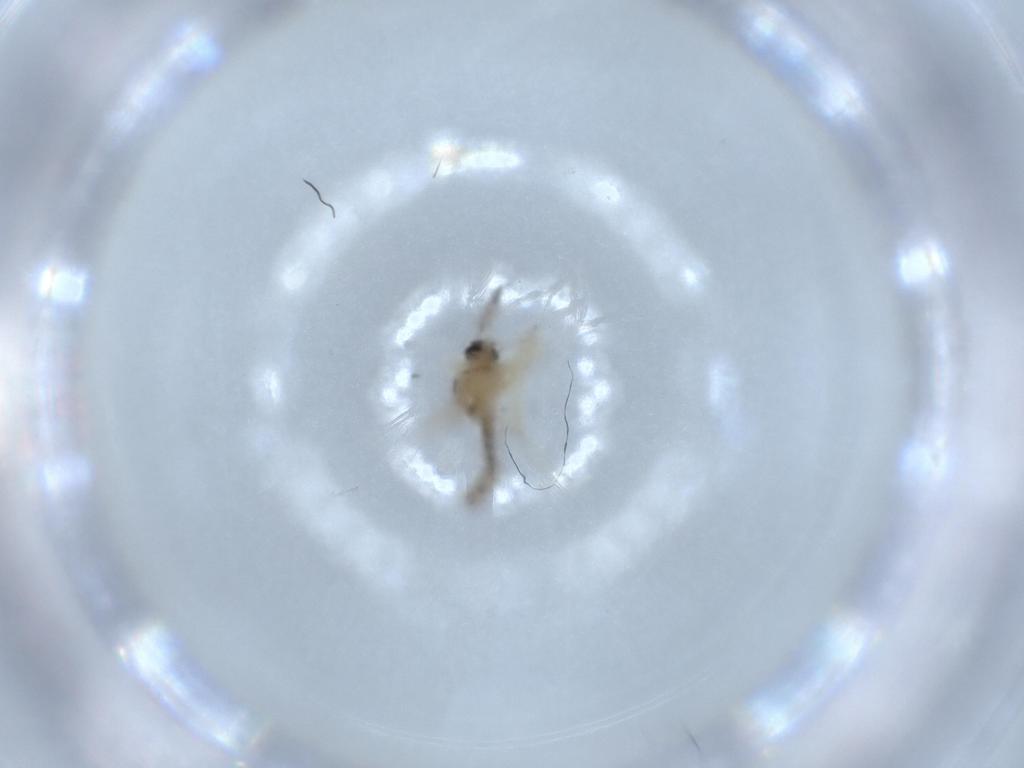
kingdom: Animalia
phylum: Arthropoda
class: Insecta
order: Diptera
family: Ceratopogonidae
